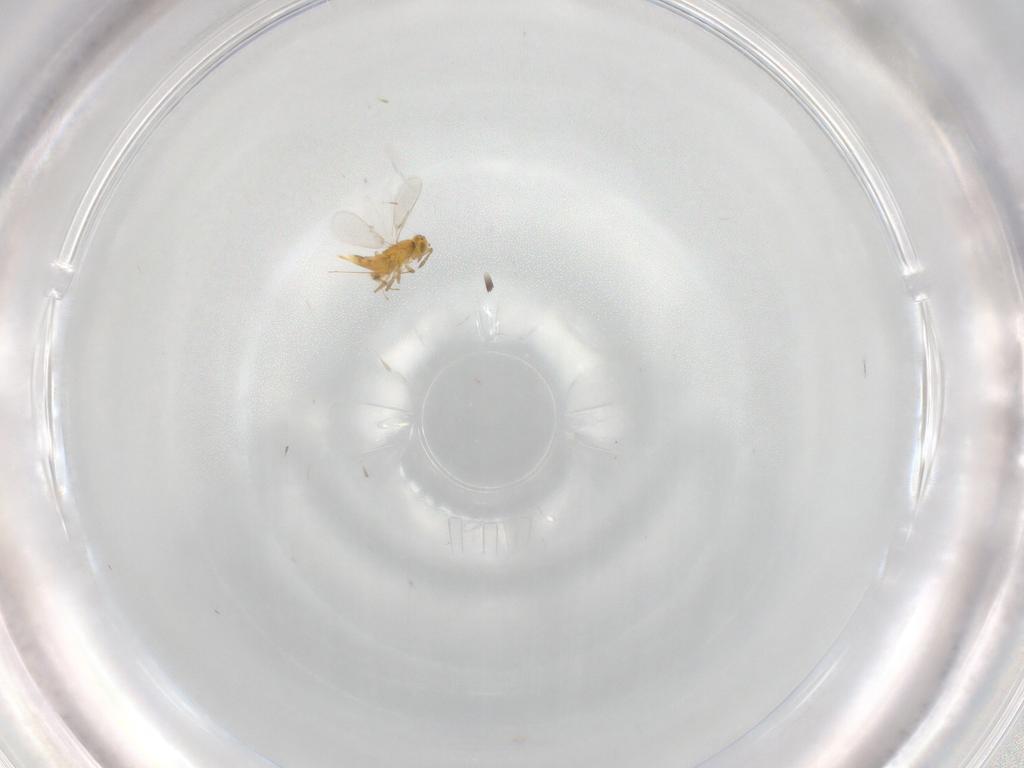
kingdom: Animalia
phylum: Arthropoda
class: Insecta
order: Hymenoptera
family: Aphelinidae
